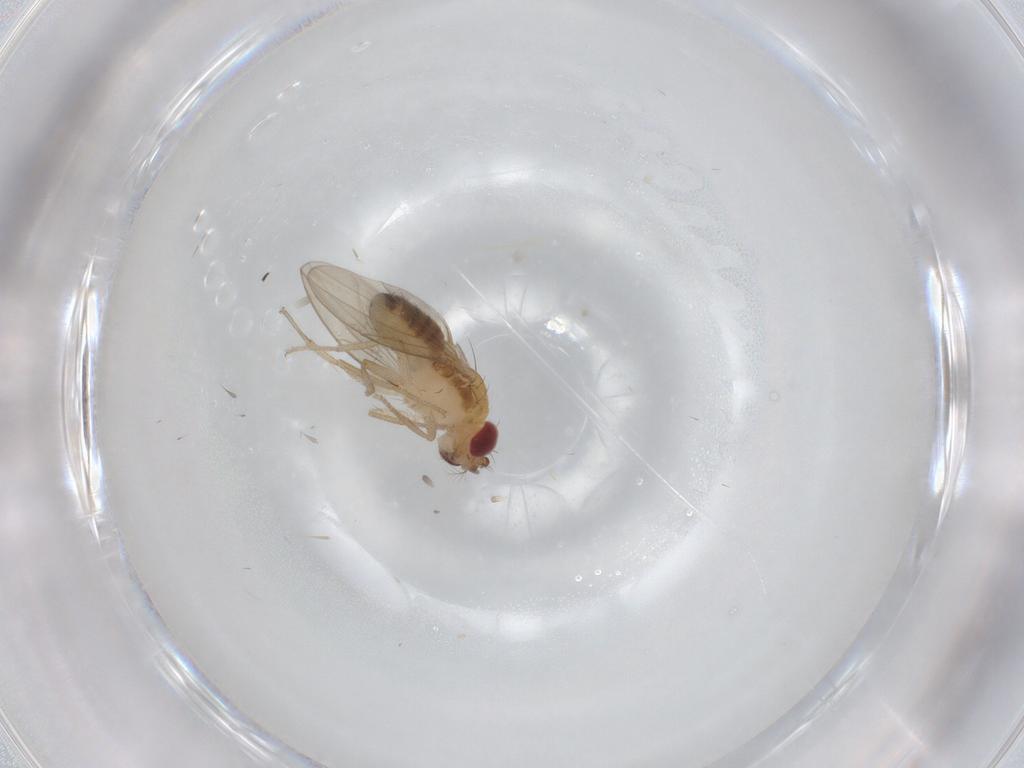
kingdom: Animalia
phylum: Arthropoda
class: Insecta
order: Diptera
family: Drosophilidae
